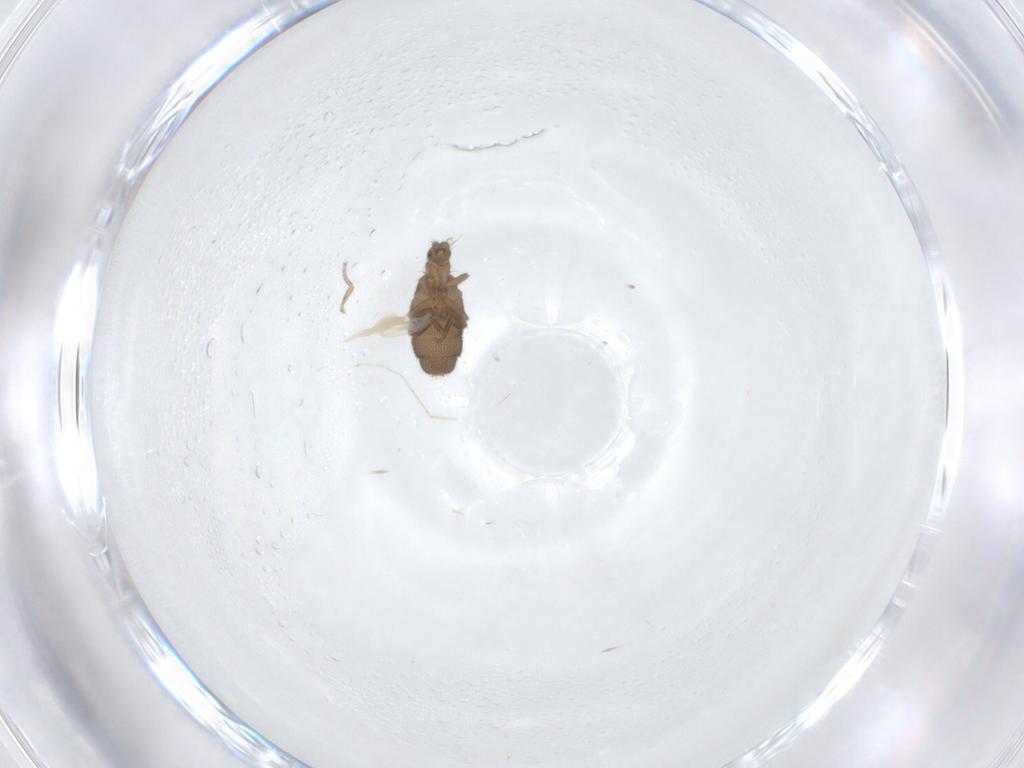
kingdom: Animalia
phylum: Arthropoda
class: Insecta
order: Diptera
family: Phoridae
